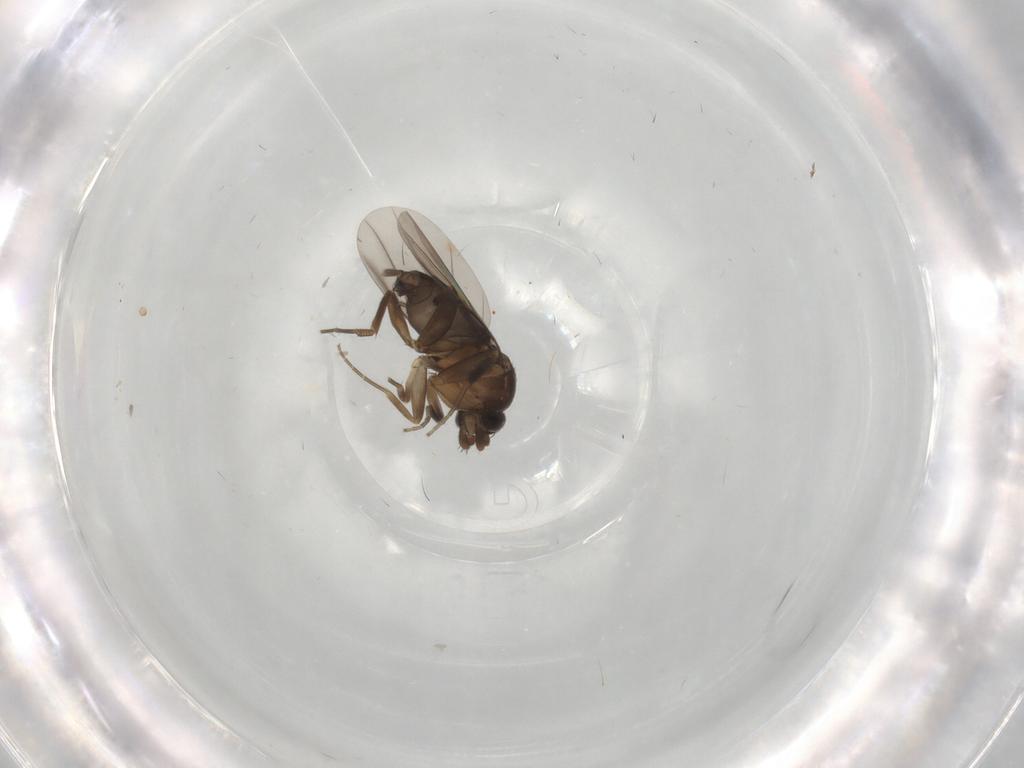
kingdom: Animalia
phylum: Arthropoda
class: Insecta
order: Diptera
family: Phoridae
